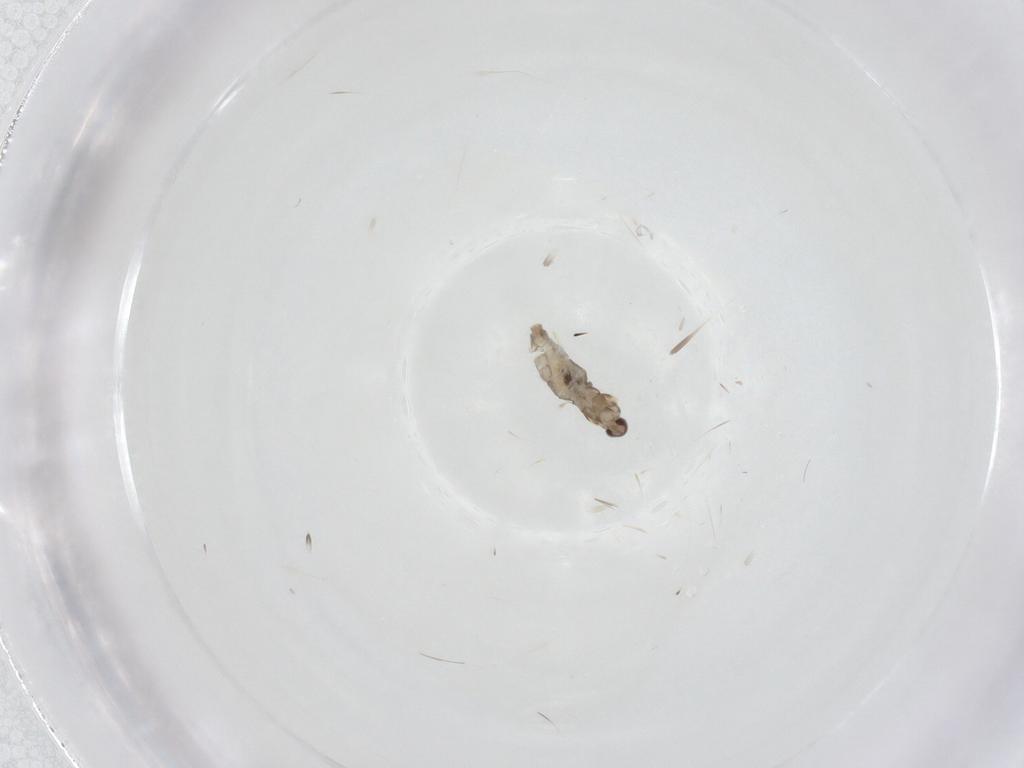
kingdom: Animalia
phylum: Arthropoda
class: Insecta
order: Diptera
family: Cecidomyiidae
